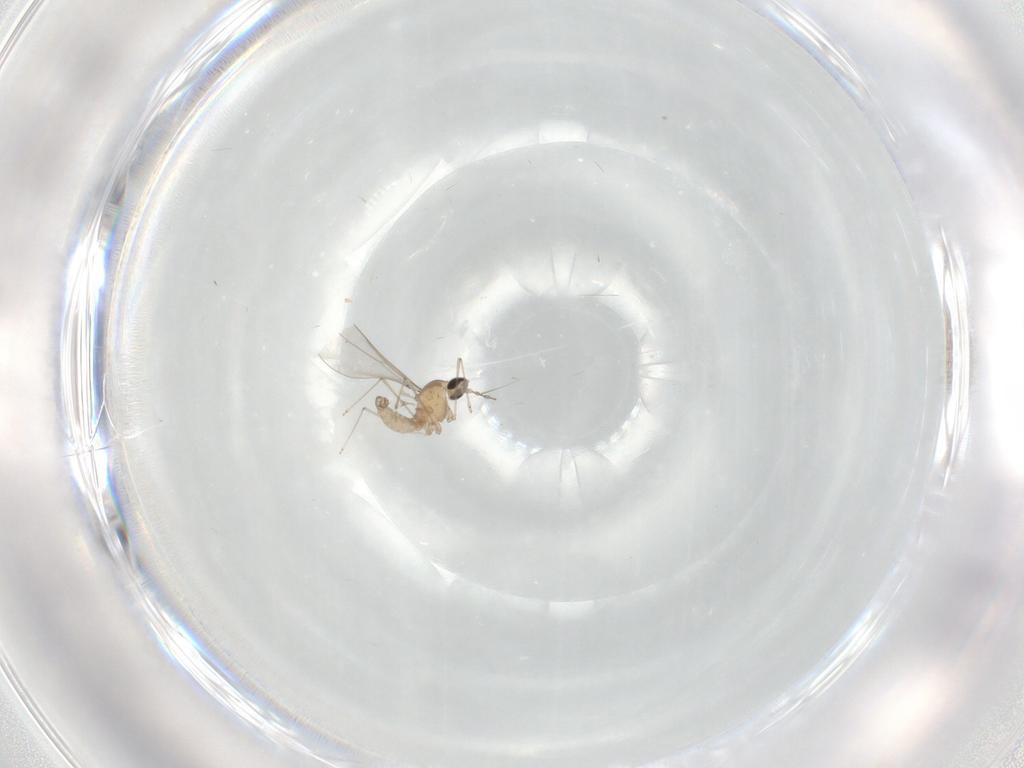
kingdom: Animalia
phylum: Arthropoda
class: Insecta
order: Diptera
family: Cecidomyiidae
